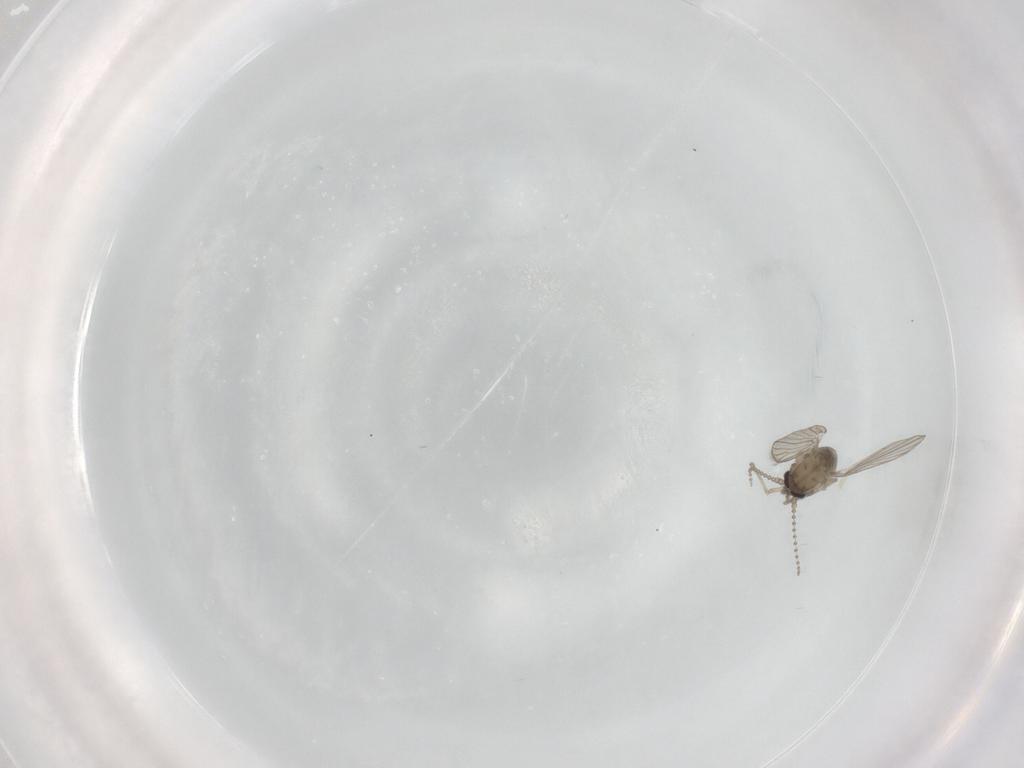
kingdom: Animalia
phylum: Arthropoda
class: Insecta
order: Diptera
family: Psychodidae
